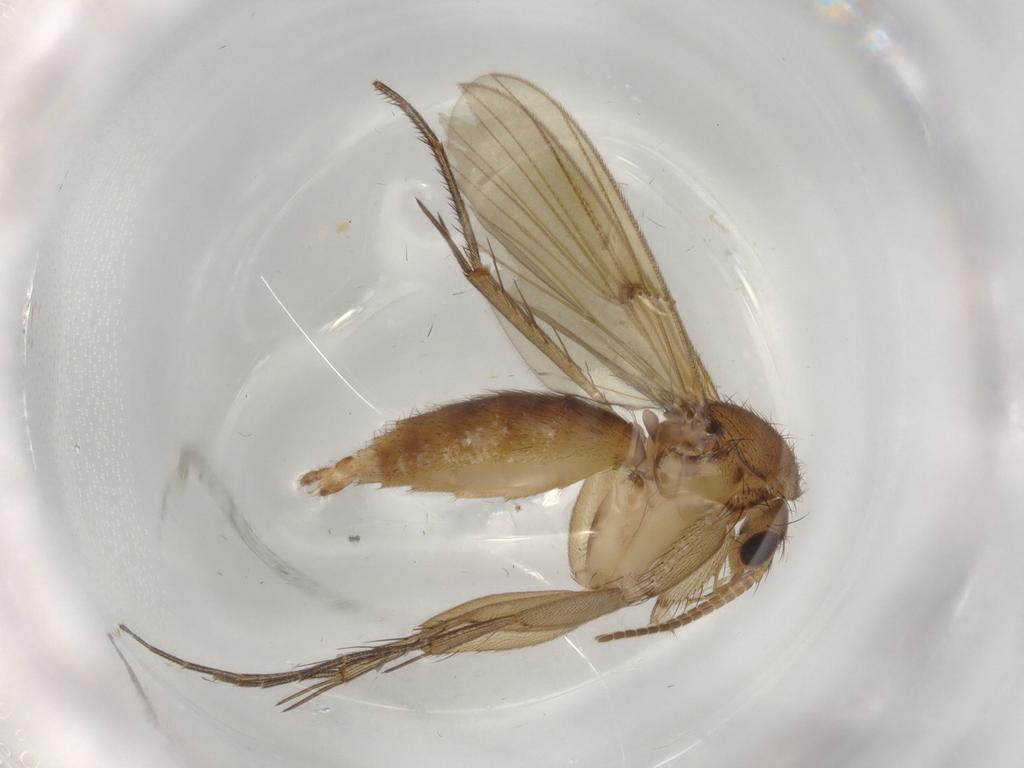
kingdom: Animalia
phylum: Arthropoda
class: Insecta
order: Diptera
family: Mycetophilidae
